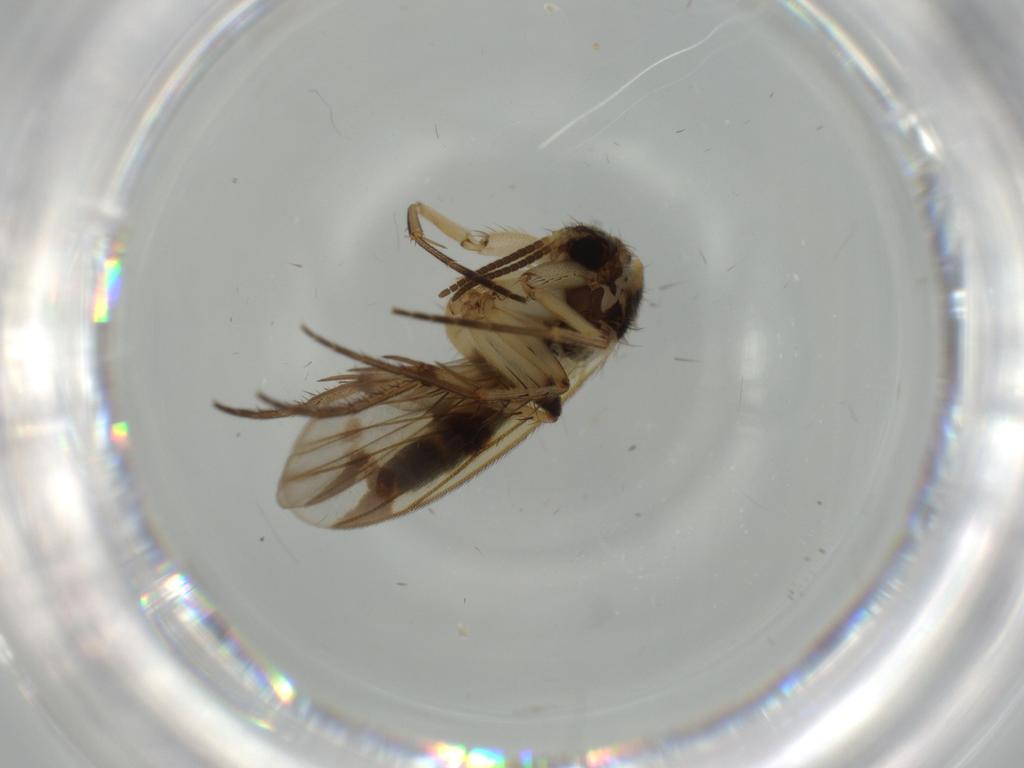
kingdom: Animalia
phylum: Arthropoda
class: Insecta
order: Diptera
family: Mycetophilidae
